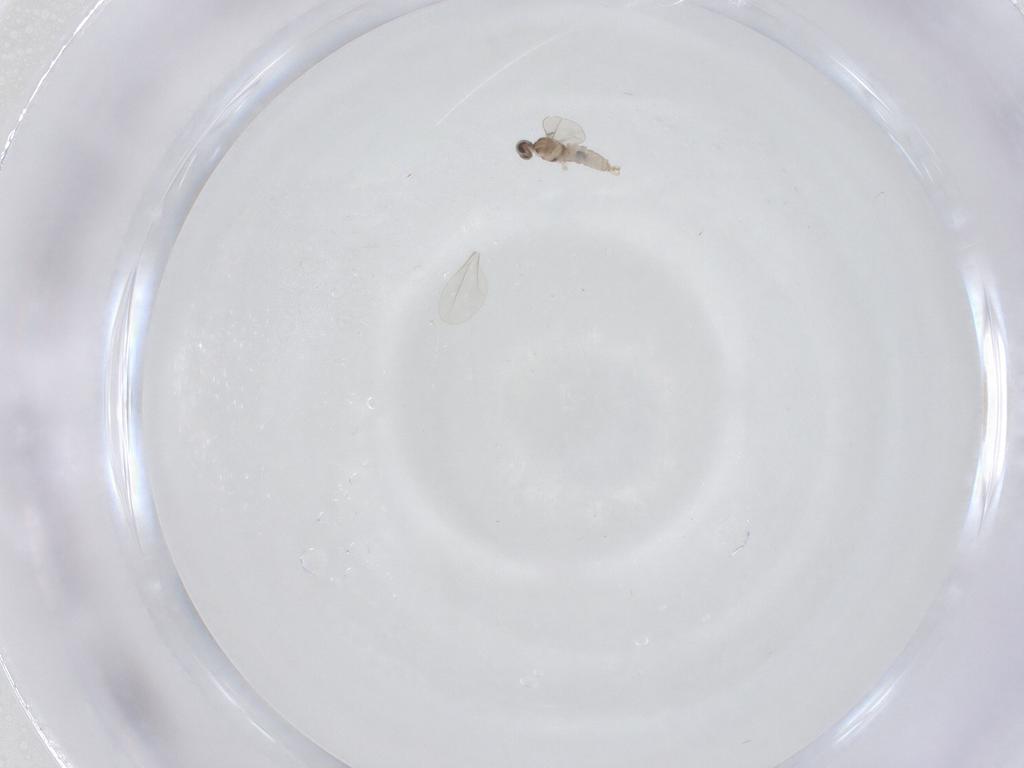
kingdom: Animalia
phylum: Arthropoda
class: Insecta
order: Diptera
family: Cecidomyiidae
